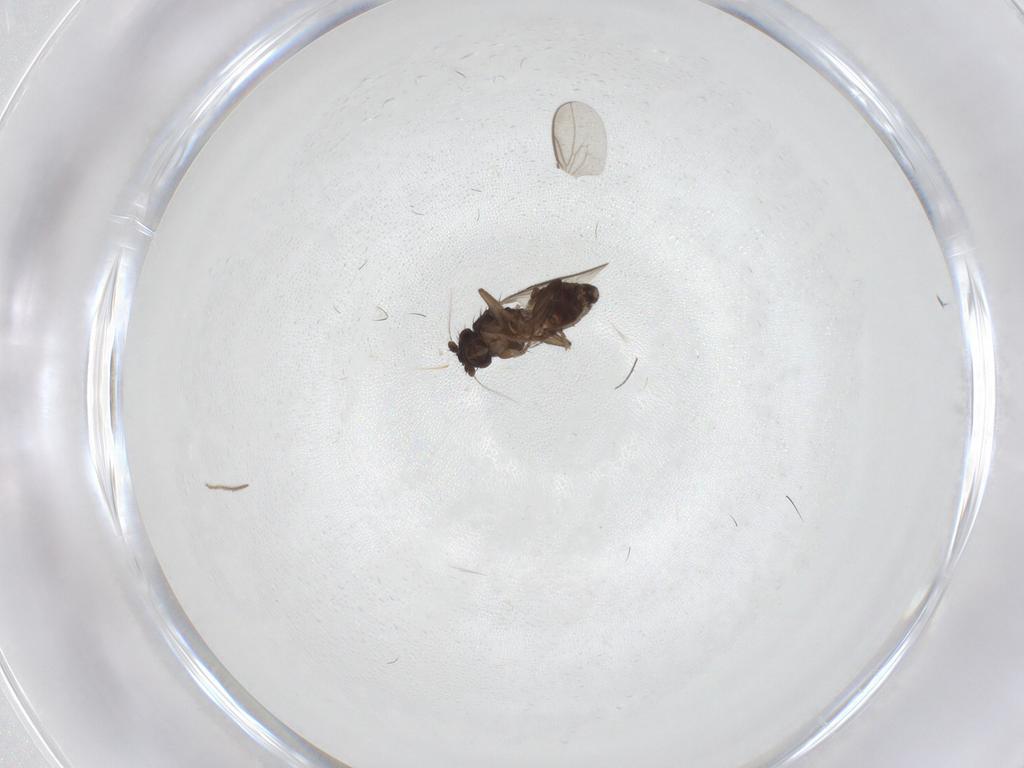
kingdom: Animalia
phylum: Arthropoda
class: Insecta
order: Diptera
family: Sphaeroceridae
